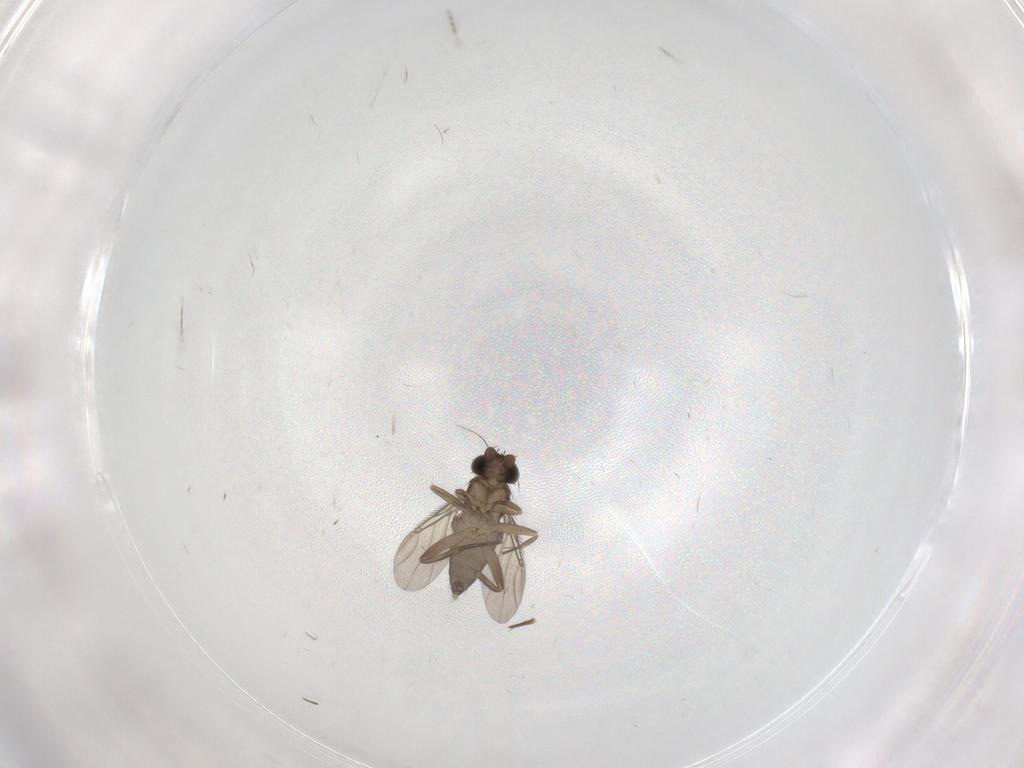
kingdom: Animalia
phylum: Arthropoda
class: Insecta
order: Diptera
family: Phoridae
